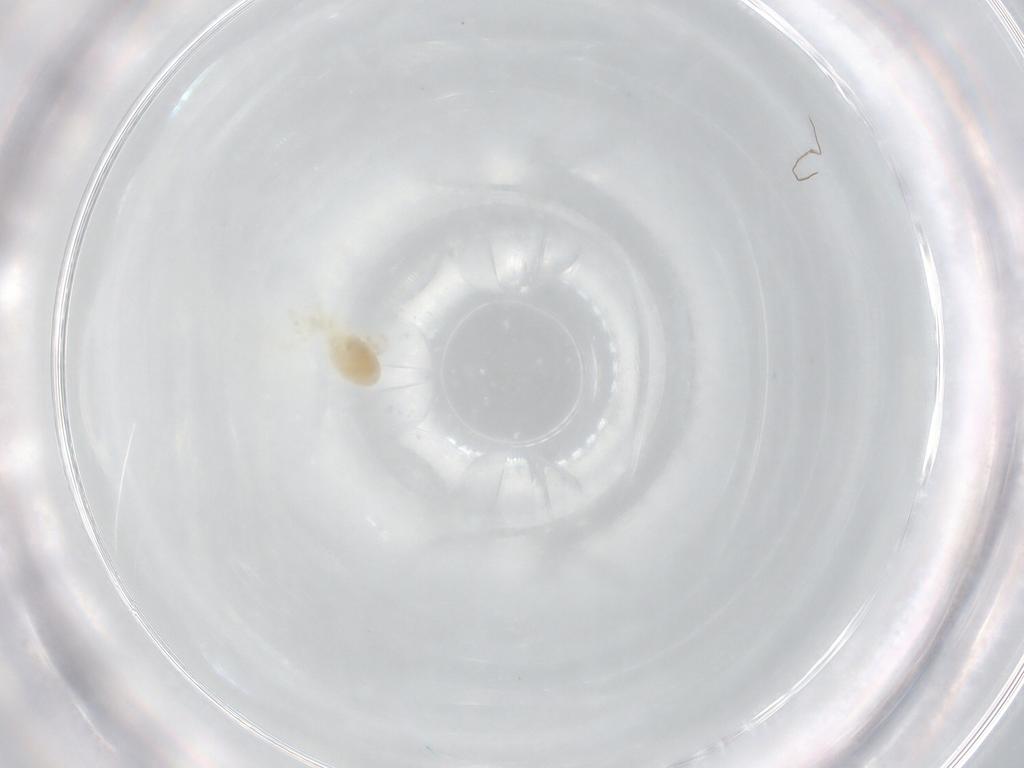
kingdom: Animalia
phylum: Arthropoda
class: Arachnida
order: Trombidiformes
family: Rhagidiidae
